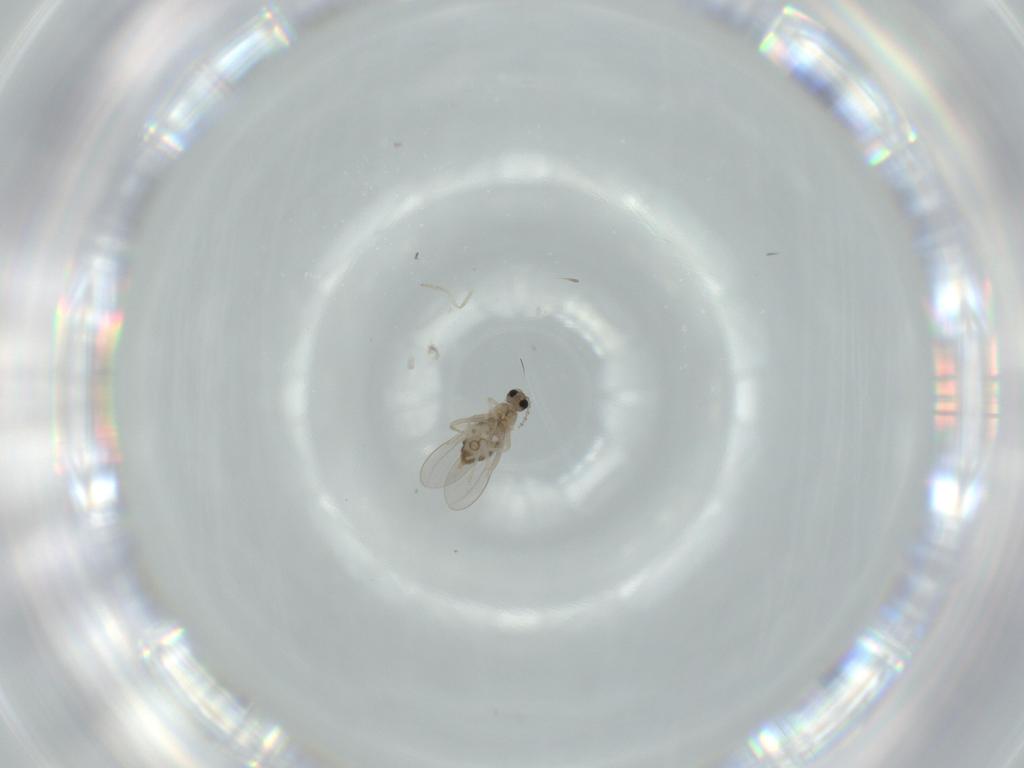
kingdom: Animalia
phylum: Arthropoda
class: Insecta
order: Diptera
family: Cecidomyiidae
